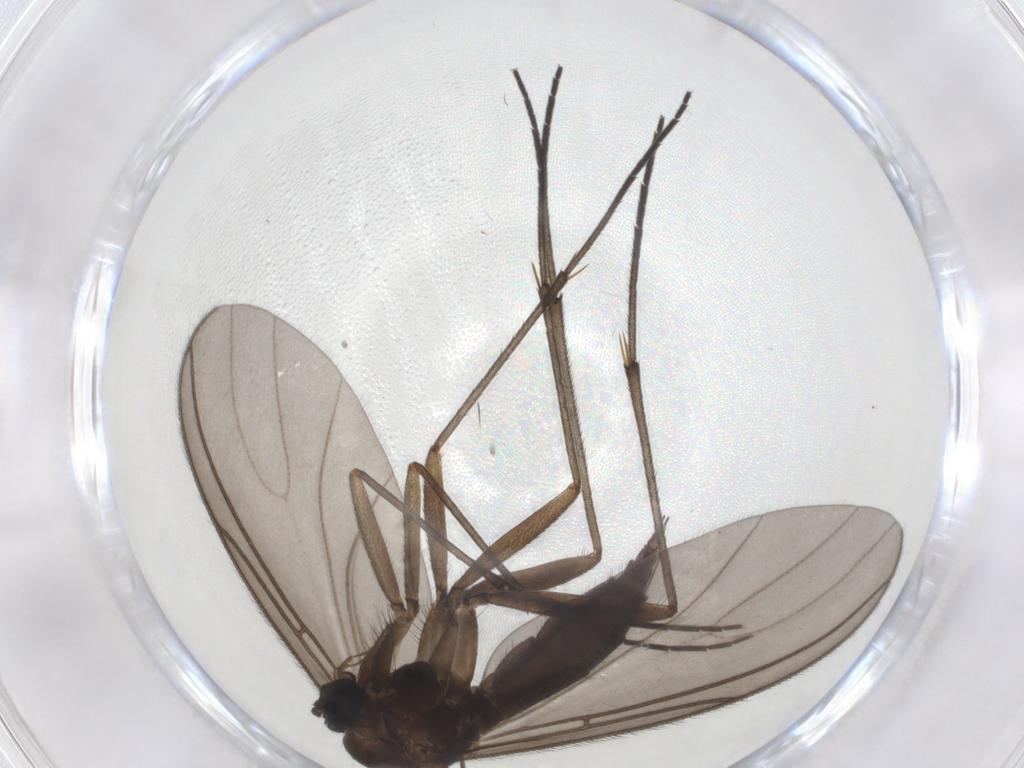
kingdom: Animalia
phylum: Arthropoda
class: Insecta
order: Diptera
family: Sciaridae
